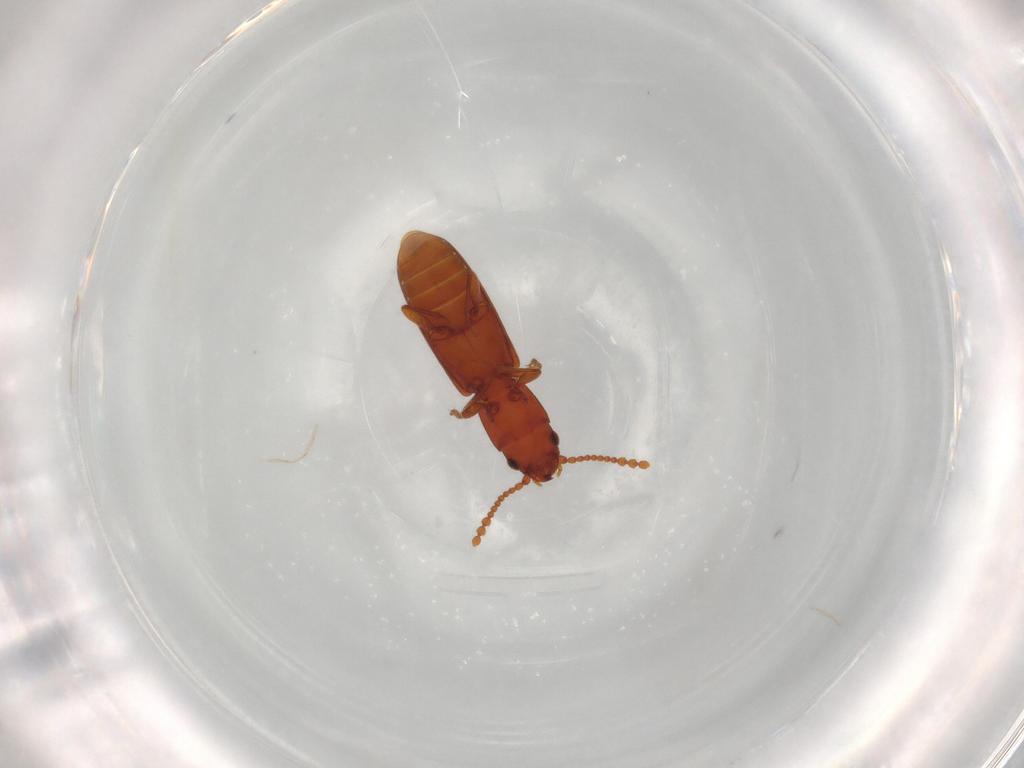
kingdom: Animalia
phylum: Arthropoda
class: Insecta
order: Coleoptera
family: Laemophloeidae
